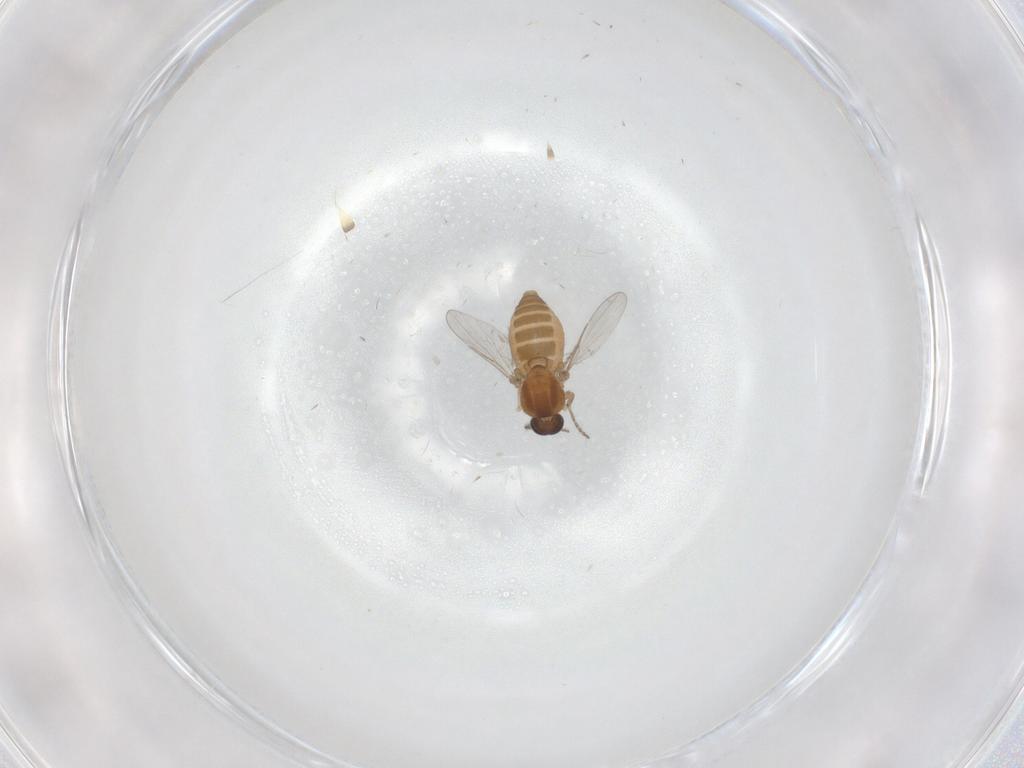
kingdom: Animalia
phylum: Arthropoda
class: Insecta
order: Diptera
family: Ceratopogonidae
